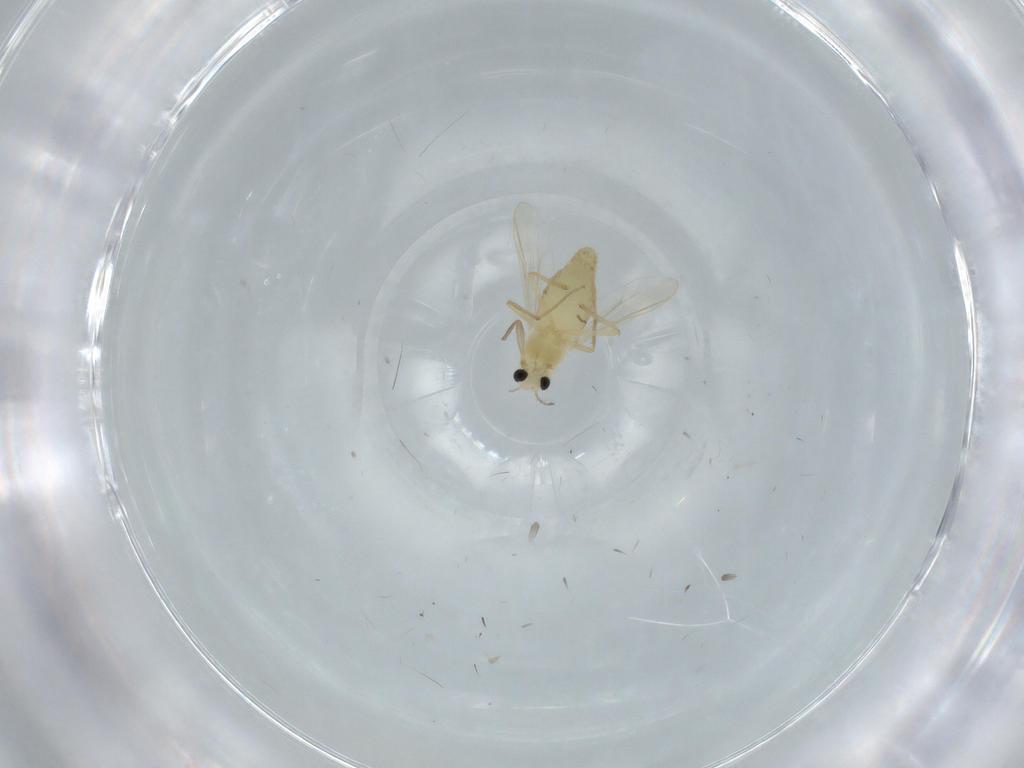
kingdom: Animalia
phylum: Arthropoda
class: Insecta
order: Diptera
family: Chironomidae
